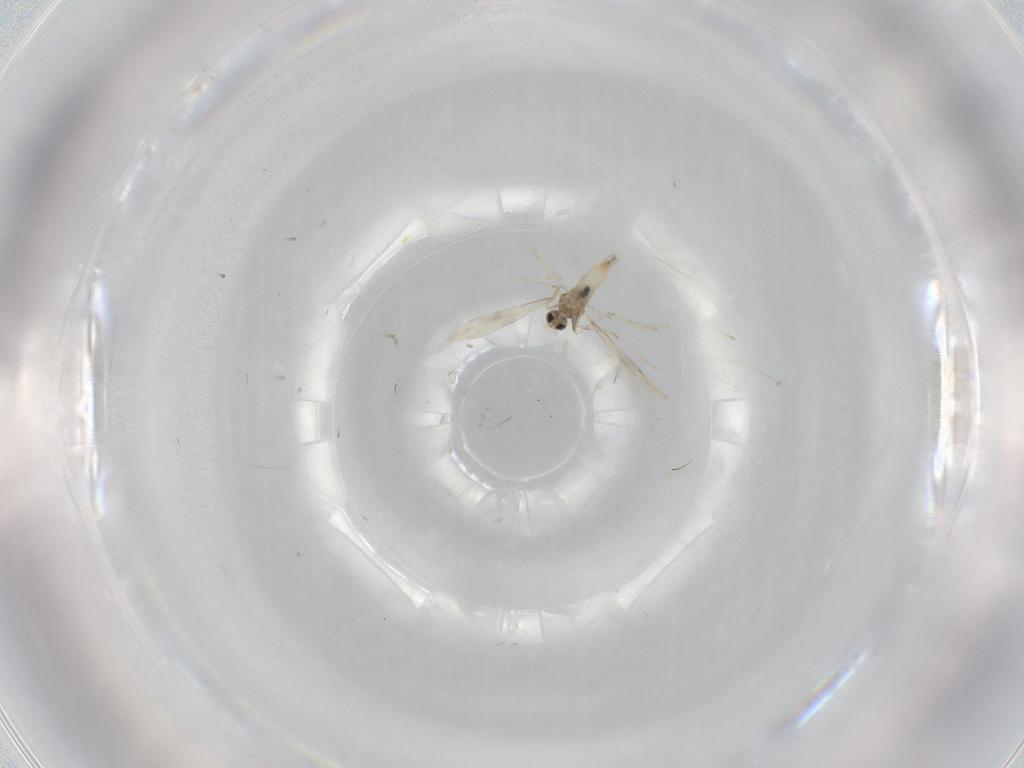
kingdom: Animalia
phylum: Arthropoda
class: Insecta
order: Diptera
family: Cecidomyiidae
